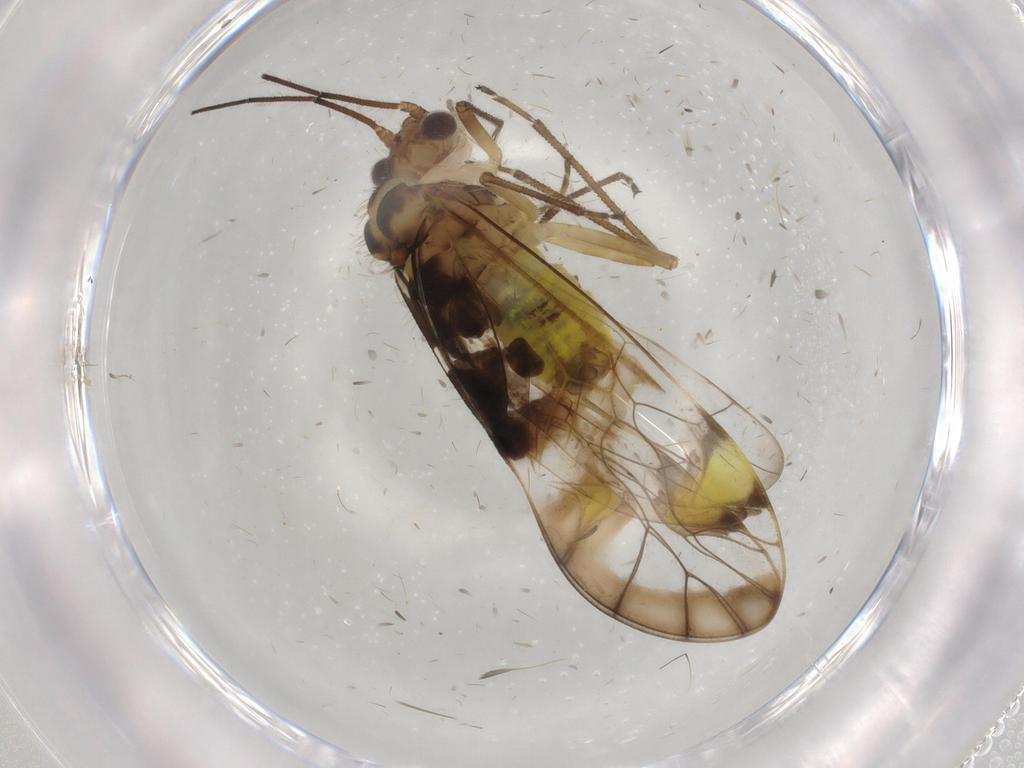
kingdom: Animalia
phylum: Arthropoda
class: Insecta
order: Psocodea
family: Amphipsocidae
